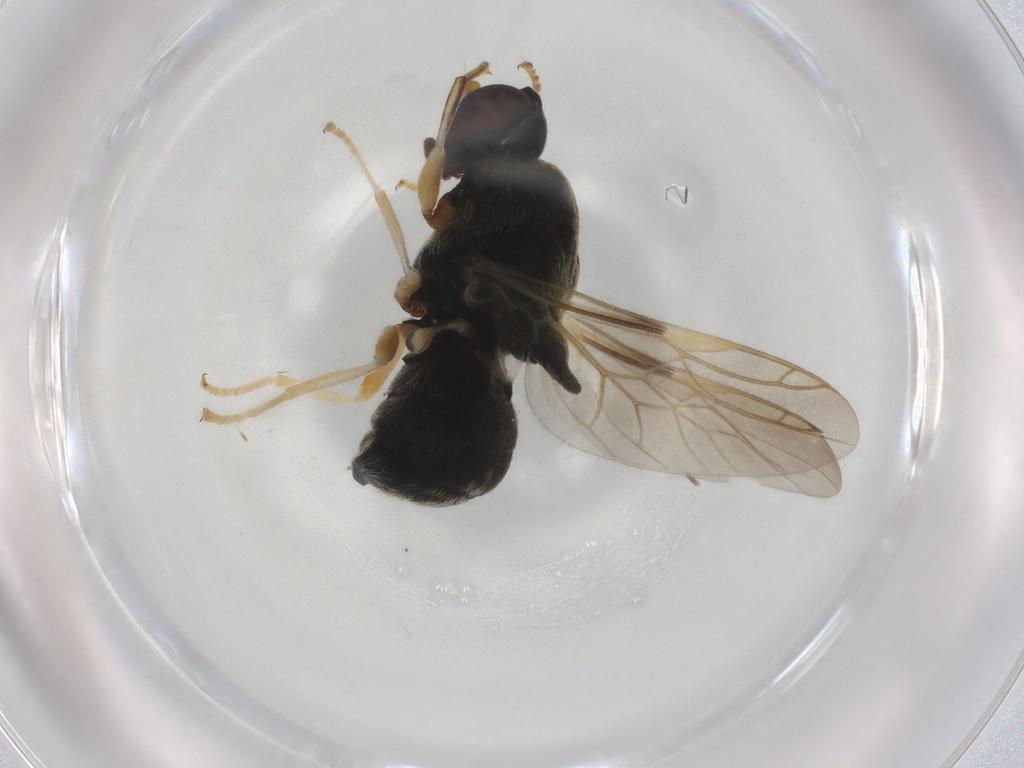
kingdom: Animalia
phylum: Arthropoda
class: Insecta
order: Diptera
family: Stratiomyidae
